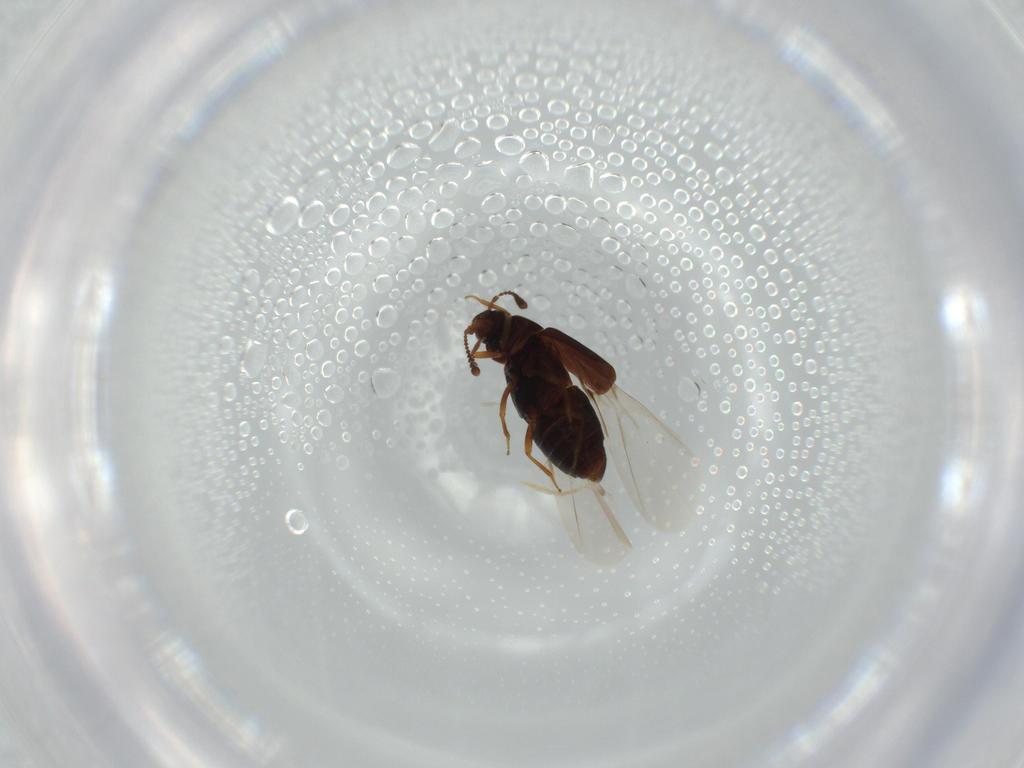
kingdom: Animalia
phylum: Arthropoda
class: Insecta
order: Coleoptera
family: Staphylinidae
